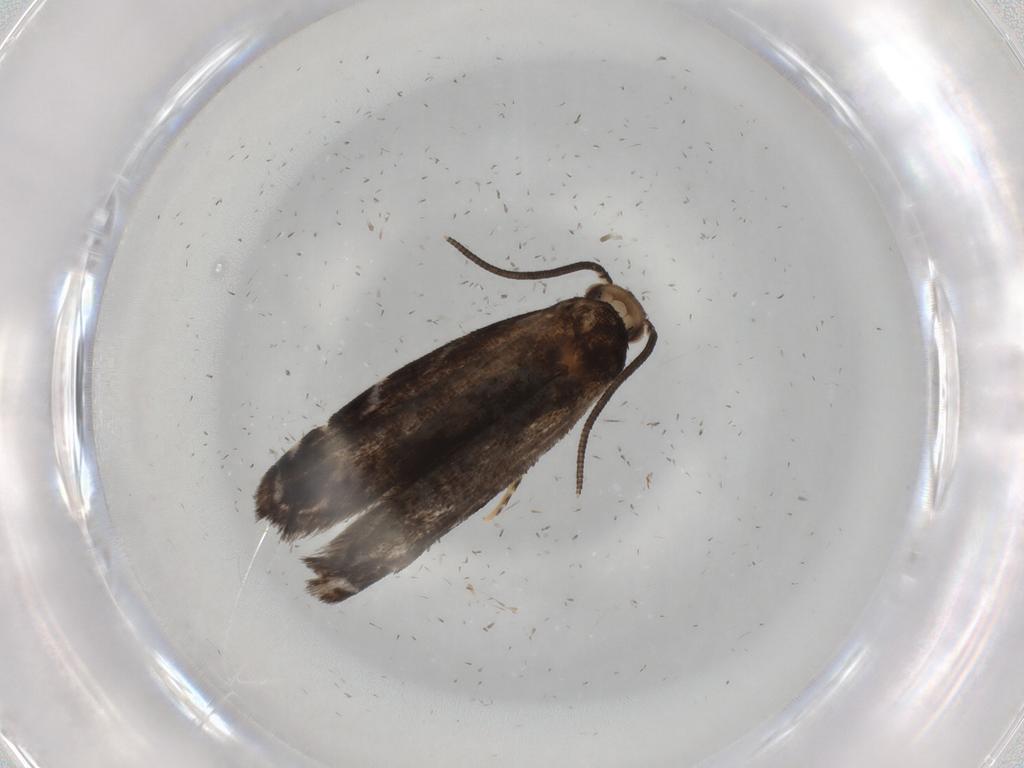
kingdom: Animalia
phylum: Arthropoda
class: Insecta
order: Lepidoptera
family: Dryadaulidae
